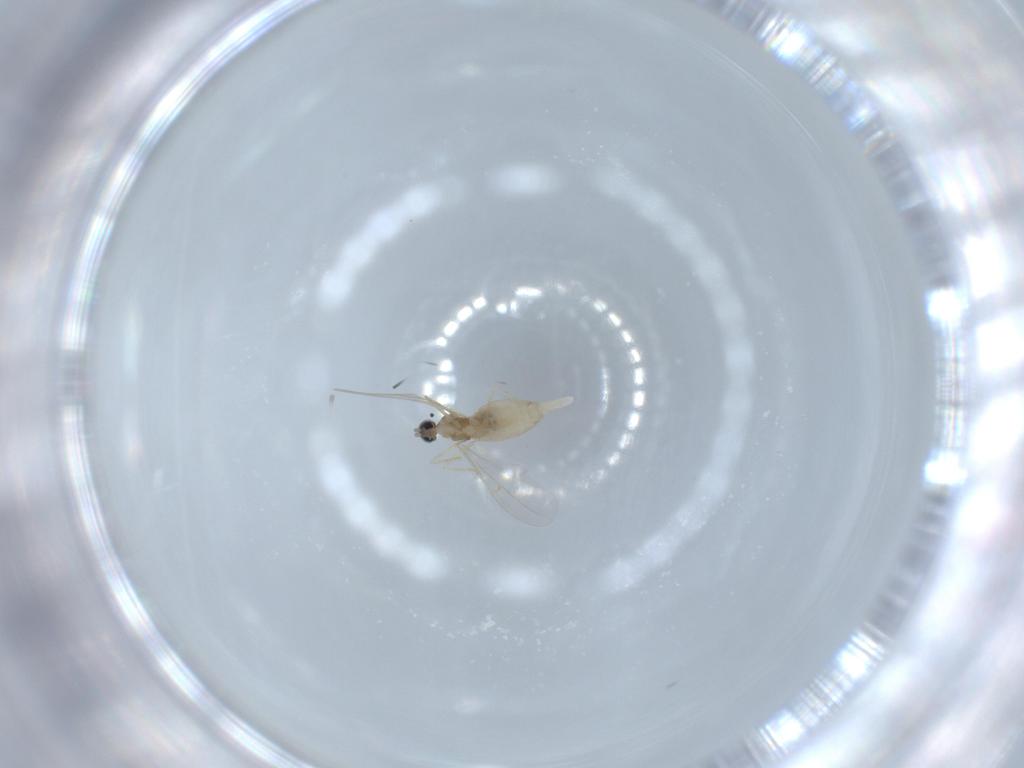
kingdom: Animalia
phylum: Arthropoda
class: Insecta
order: Diptera
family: Cecidomyiidae
